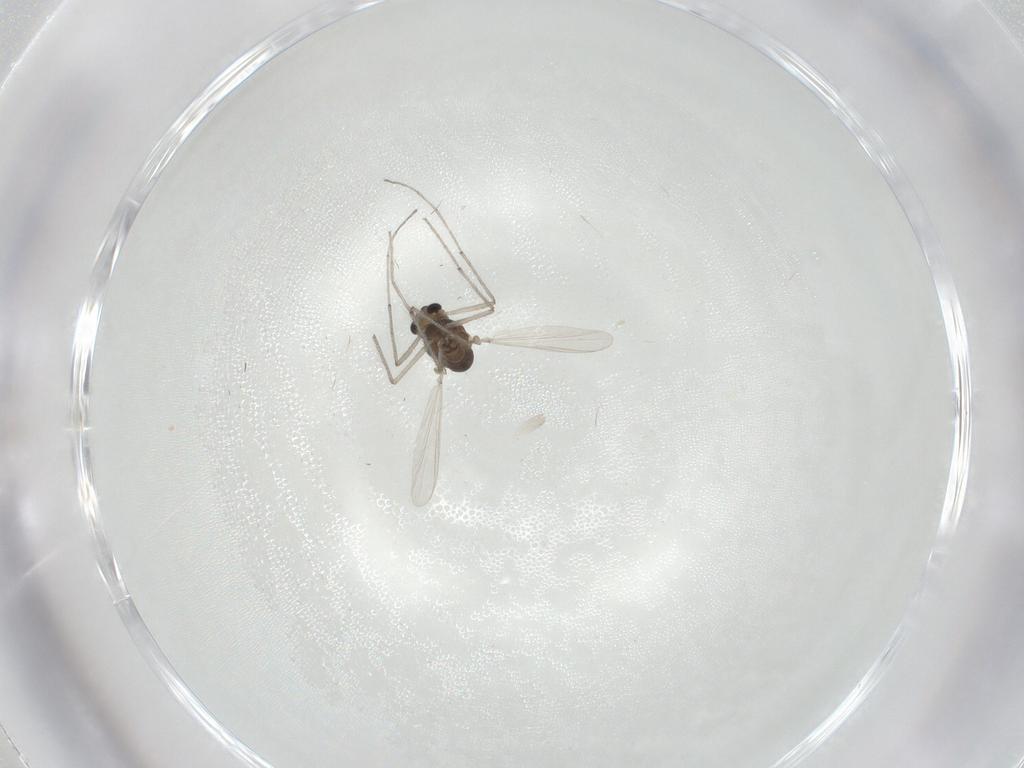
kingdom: Animalia
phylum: Arthropoda
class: Insecta
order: Diptera
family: Chironomidae
